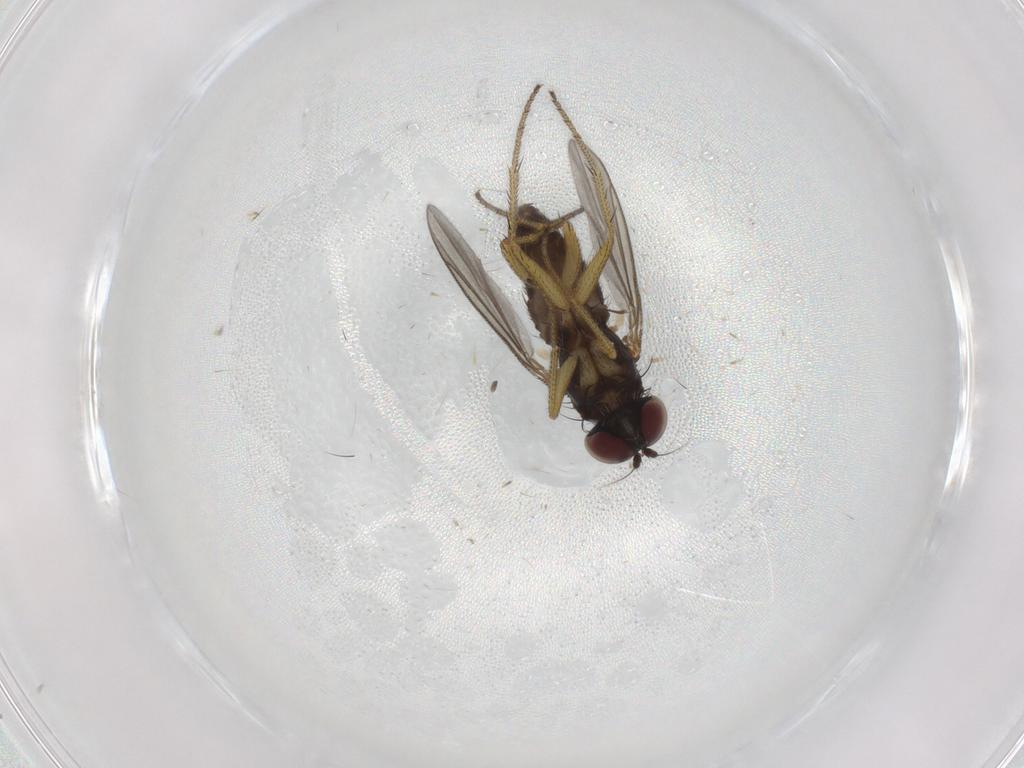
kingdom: Animalia
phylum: Arthropoda
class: Insecta
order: Diptera
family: Dolichopodidae
